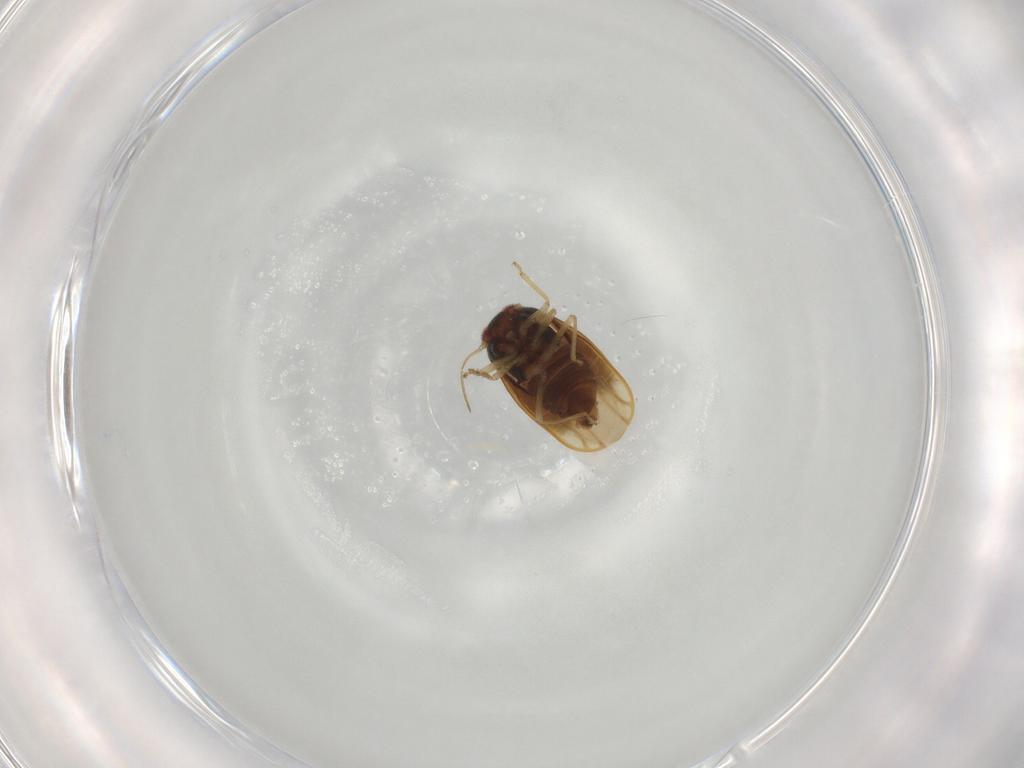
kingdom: Animalia
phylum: Arthropoda
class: Insecta
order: Hemiptera
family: Schizopteridae
